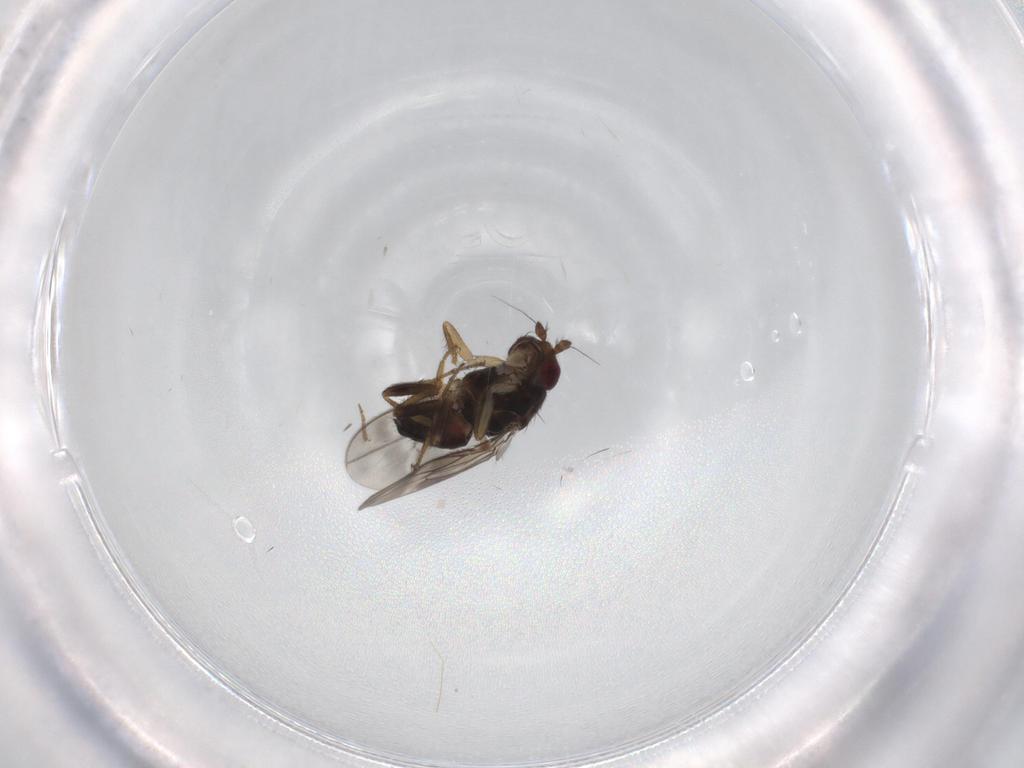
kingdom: Animalia
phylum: Arthropoda
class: Insecta
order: Diptera
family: Sphaeroceridae
